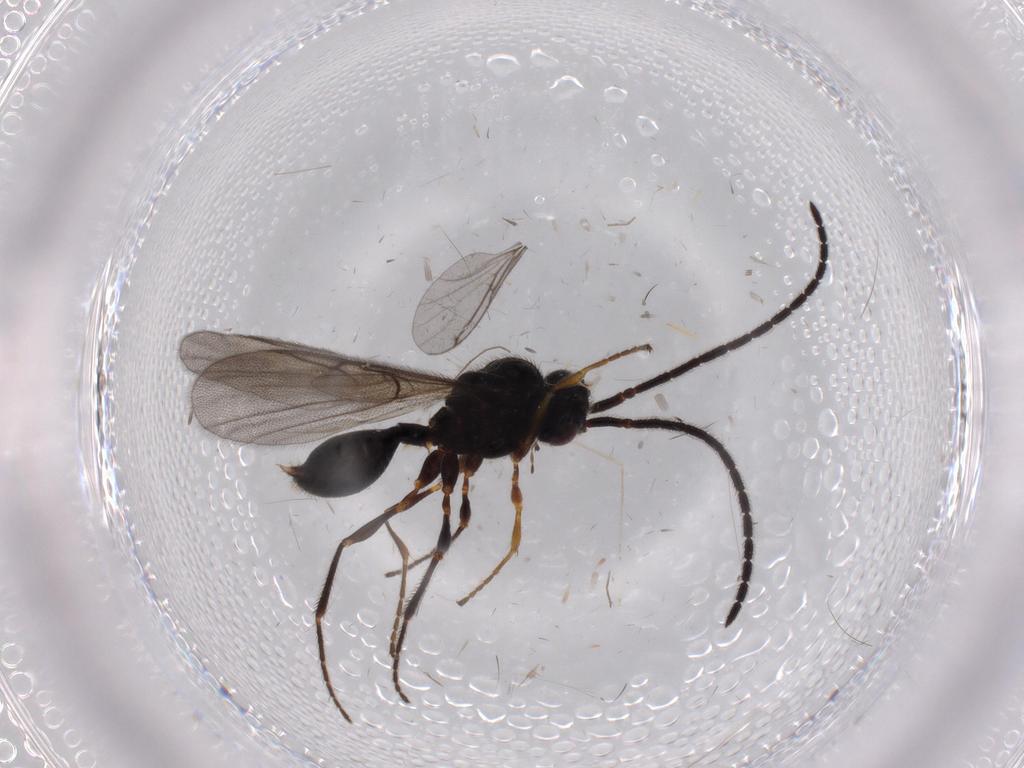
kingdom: Animalia
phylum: Arthropoda
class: Insecta
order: Hymenoptera
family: Diapriidae
